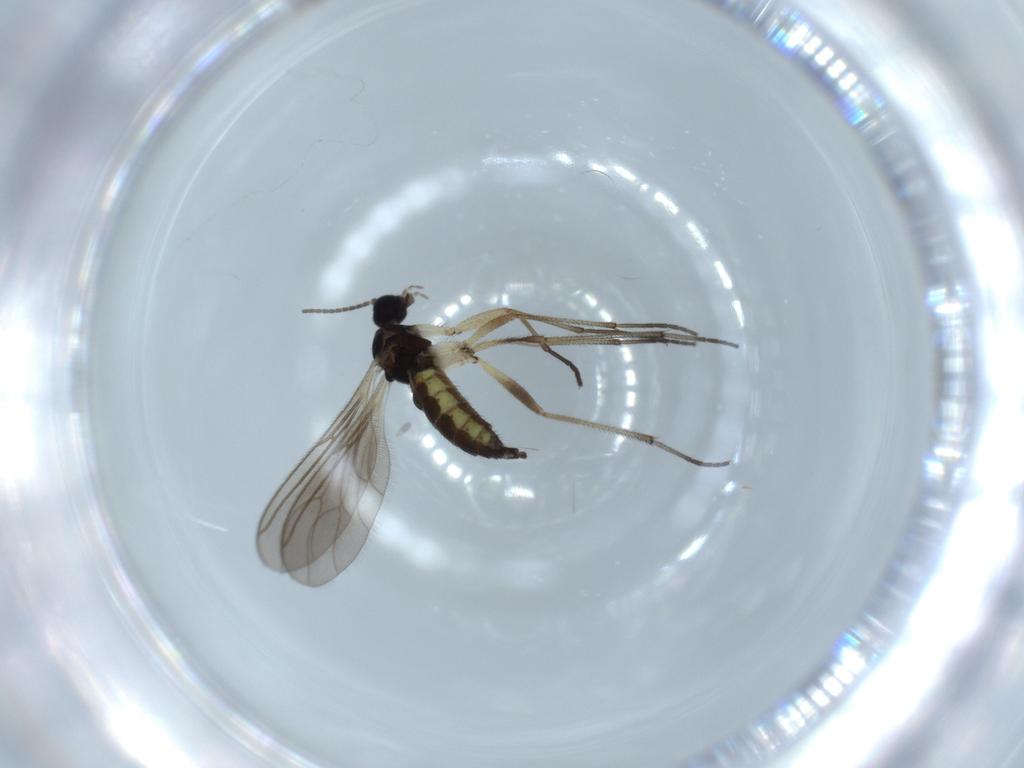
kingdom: Animalia
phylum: Arthropoda
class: Insecta
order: Diptera
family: Sciaridae
